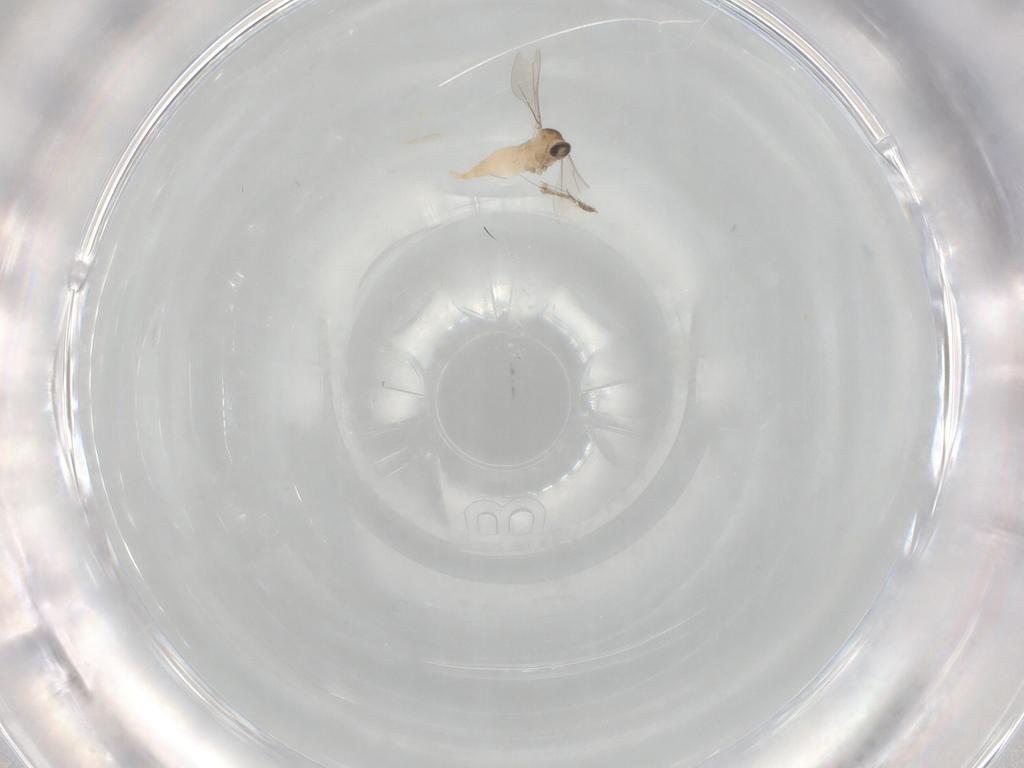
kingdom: Animalia
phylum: Arthropoda
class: Insecta
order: Diptera
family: Cecidomyiidae
